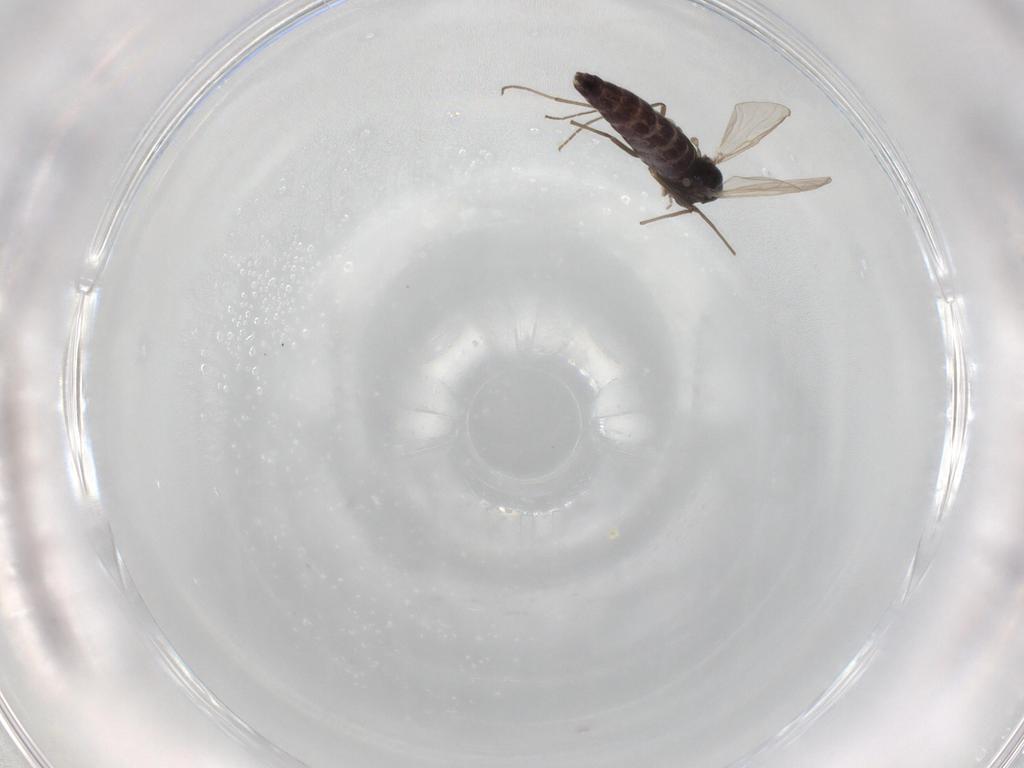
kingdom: Animalia
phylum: Arthropoda
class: Insecta
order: Diptera
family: Chironomidae
